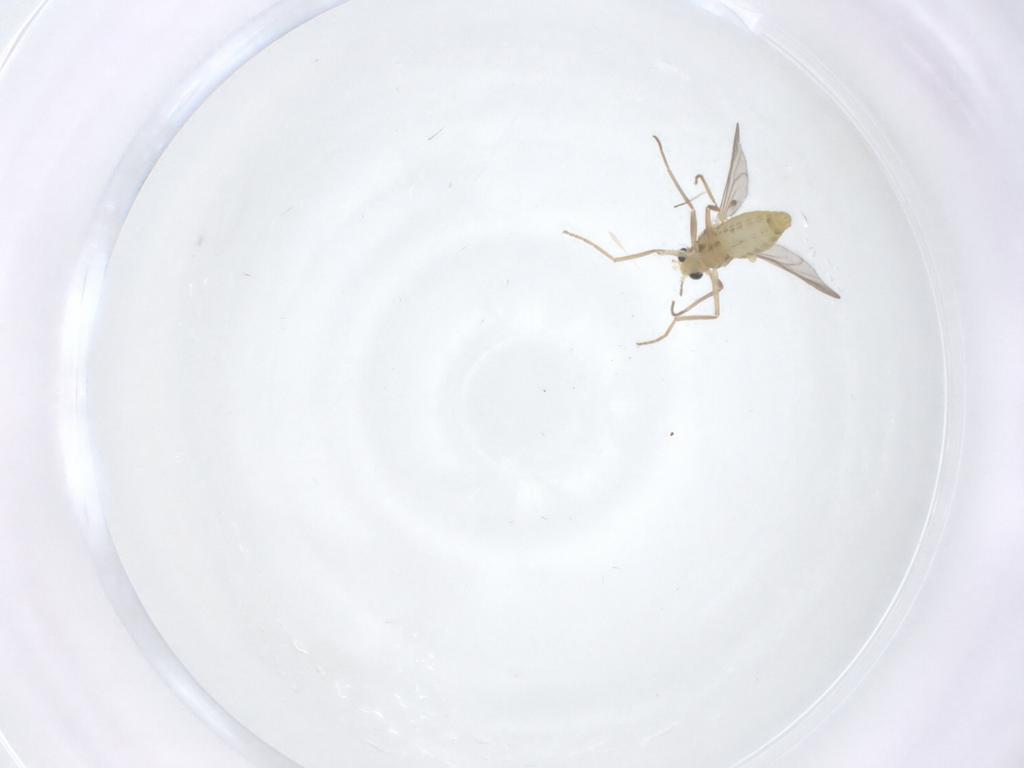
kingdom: Animalia
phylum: Arthropoda
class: Insecta
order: Diptera
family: Chironomidae
